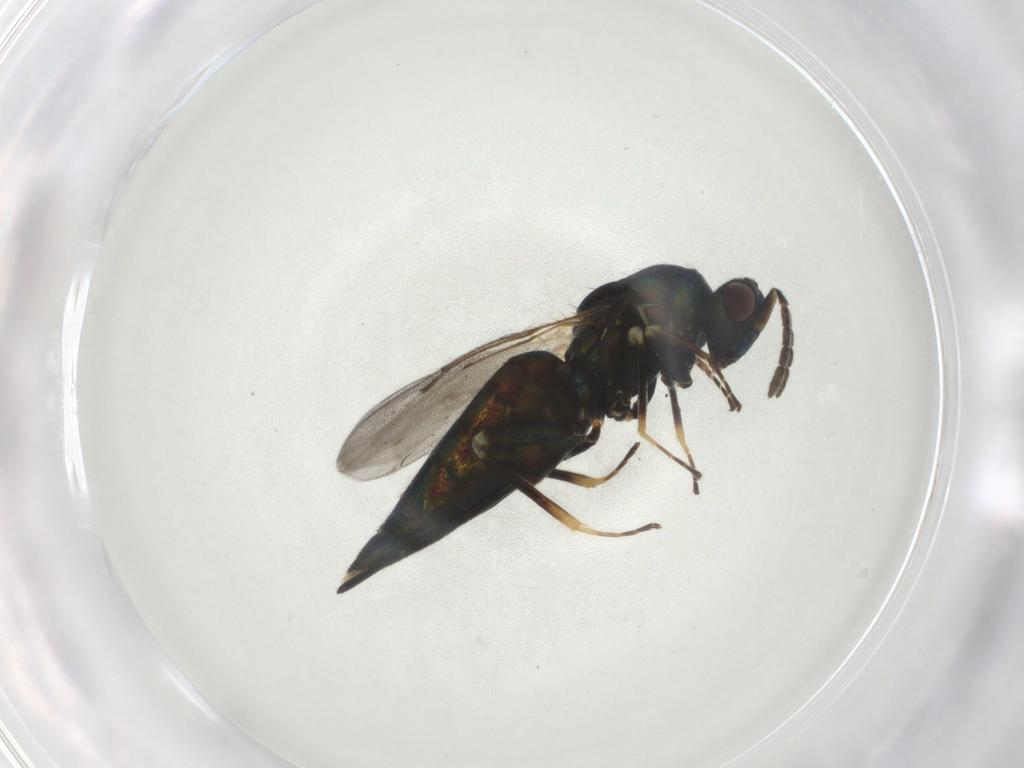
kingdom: Animalia
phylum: Arthropoda
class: Insecta
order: Hymenoptera
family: Eulophidae
